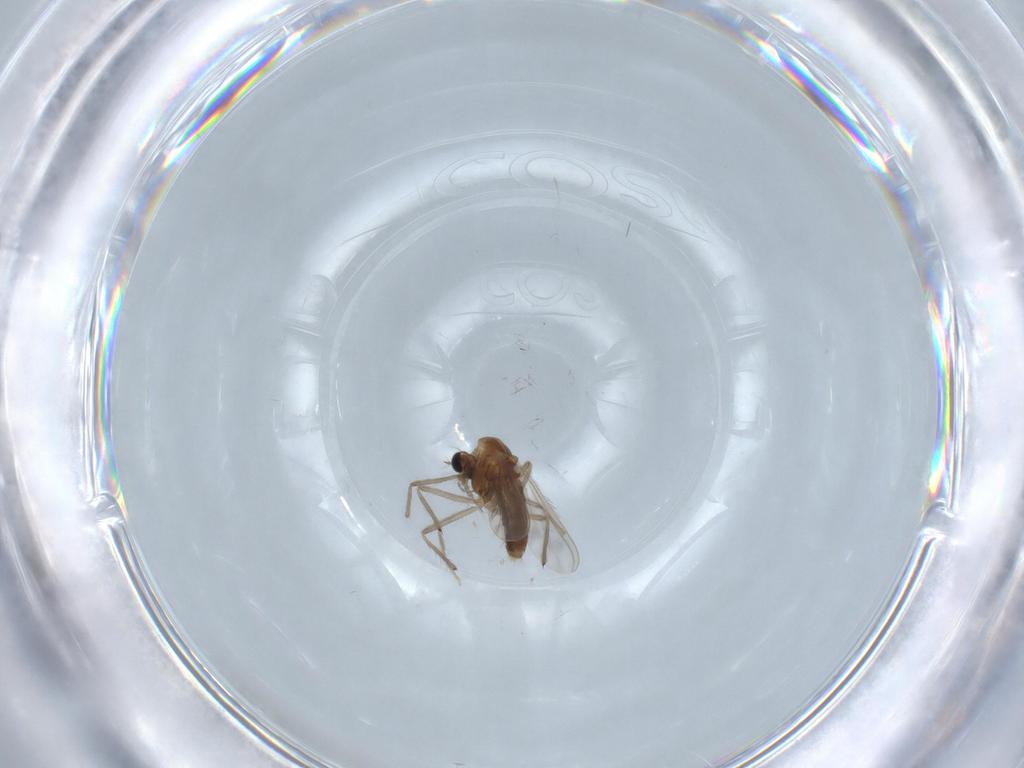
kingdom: Animalia
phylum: Arthropoda
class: Insecta
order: Diptera
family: Chironomidae
